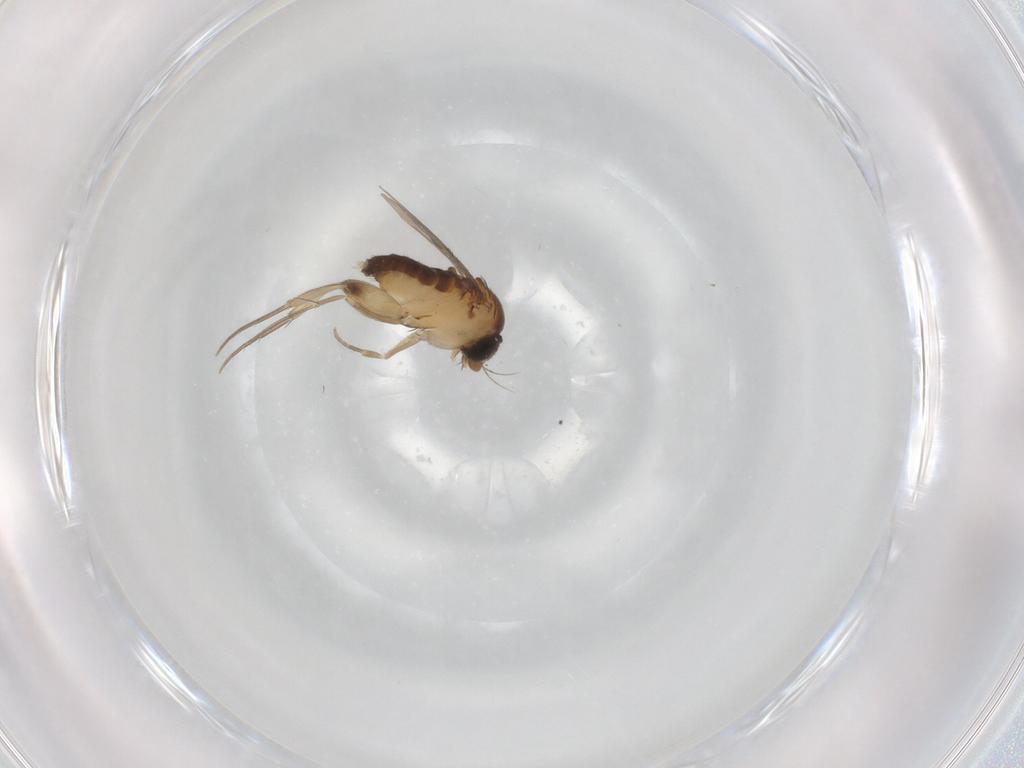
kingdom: Animalia
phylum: Arthropoda
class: Insecta
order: Diptera
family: Phoridae
